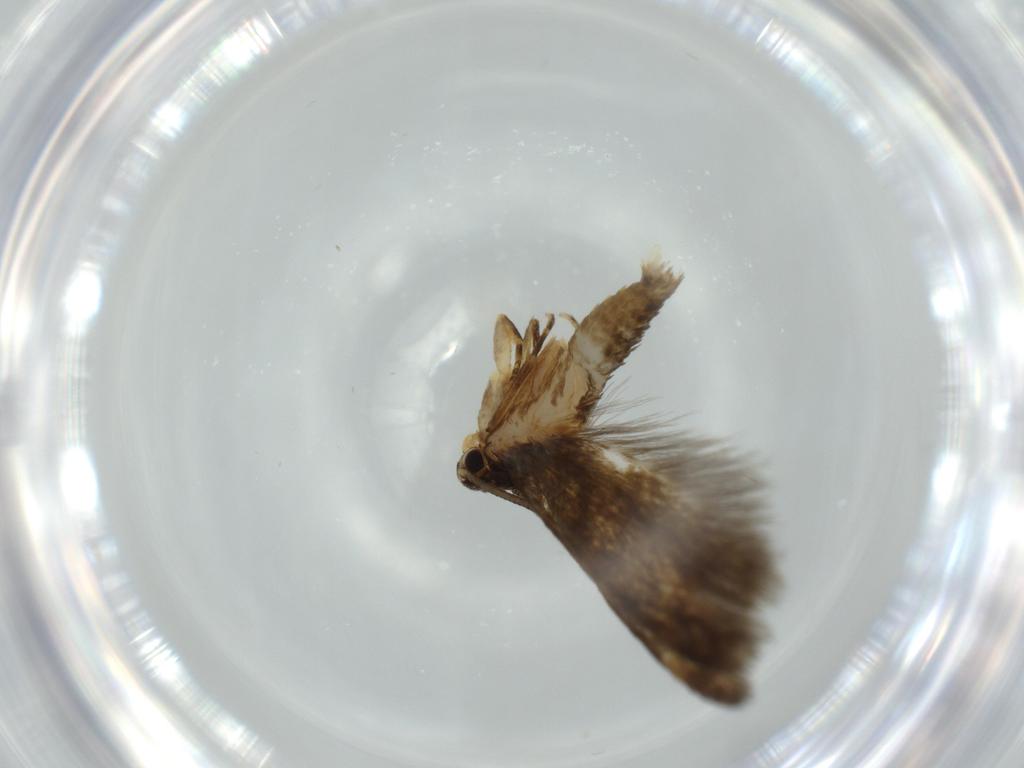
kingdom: Animalia
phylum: Arthropoda
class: Insecta
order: Lepidoptera
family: Tineidae
